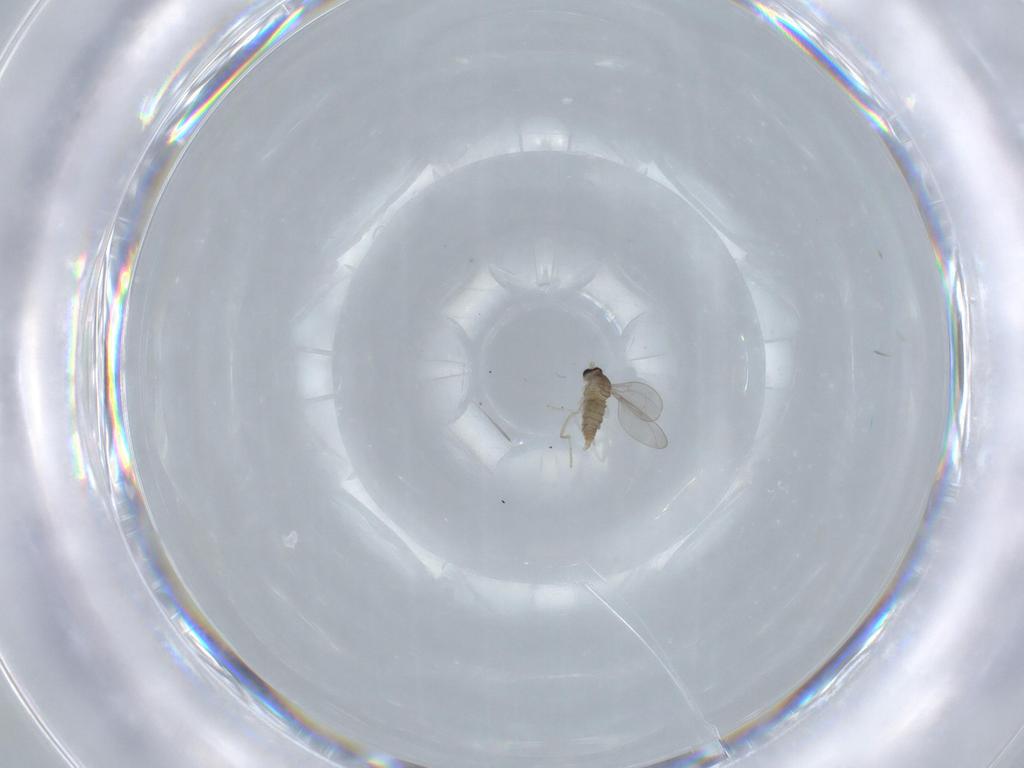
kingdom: Animalia
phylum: Arthropoda
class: Insecta
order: Diptera
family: Cecidomyiidae
